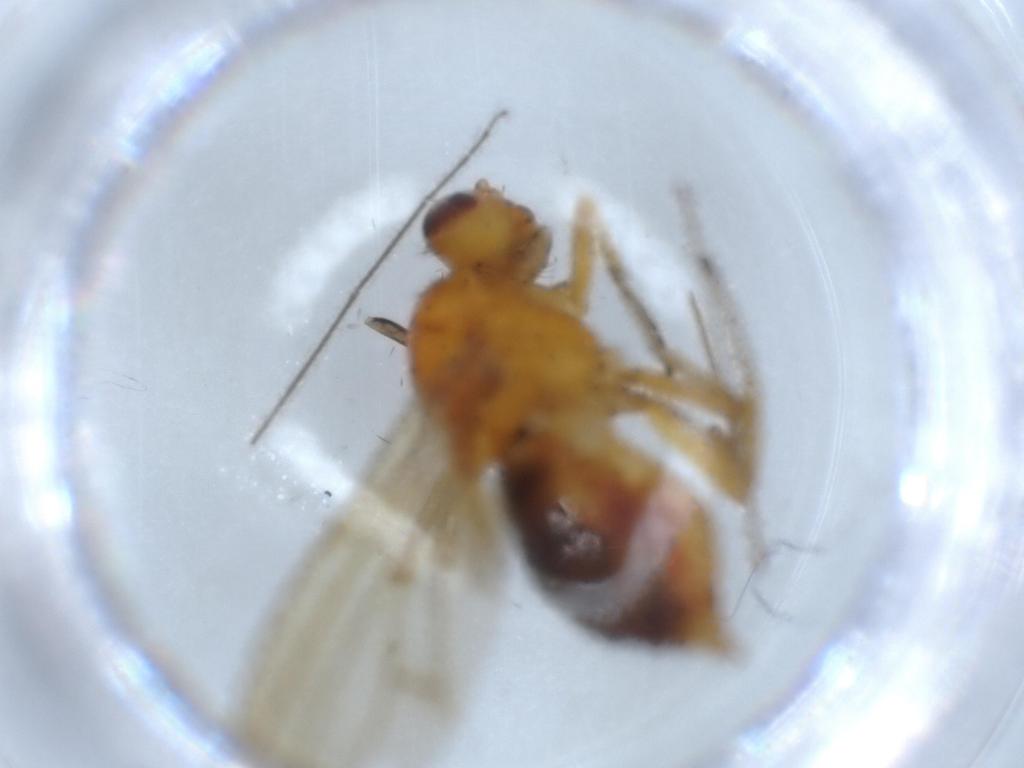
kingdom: Animalia
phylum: Arthropoda
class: Insecta
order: Diptera
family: Lauxaniidae
